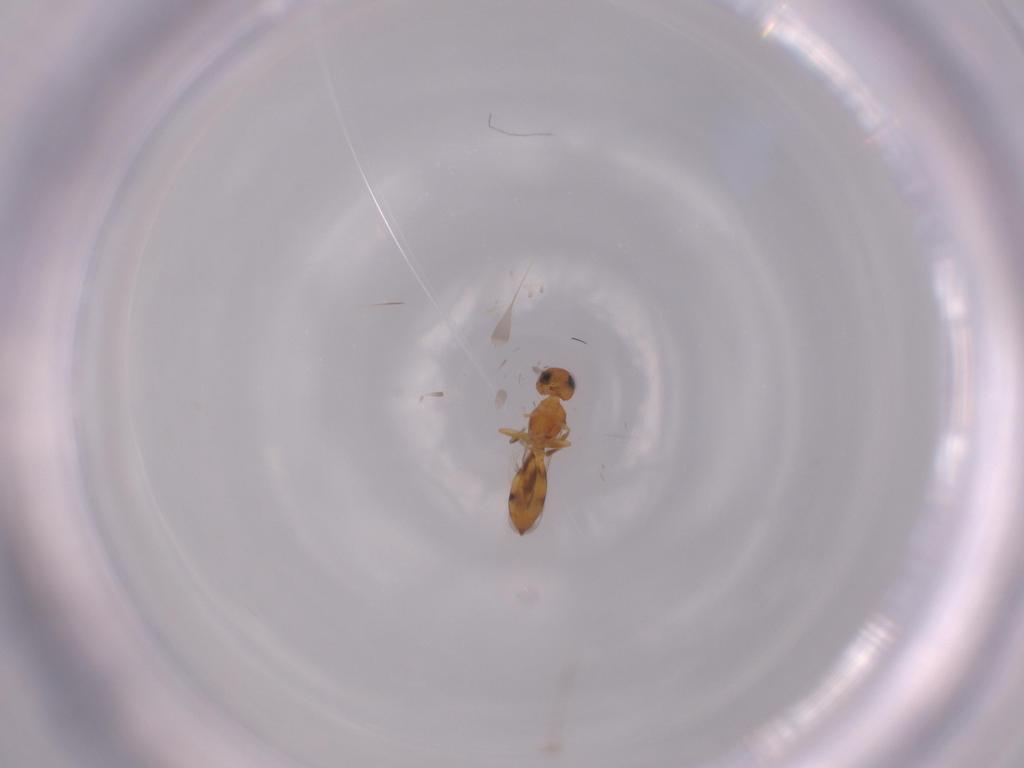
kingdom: Animalia
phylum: Arthropoda
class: Insecta
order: Hymenoptera
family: Scelionidae
